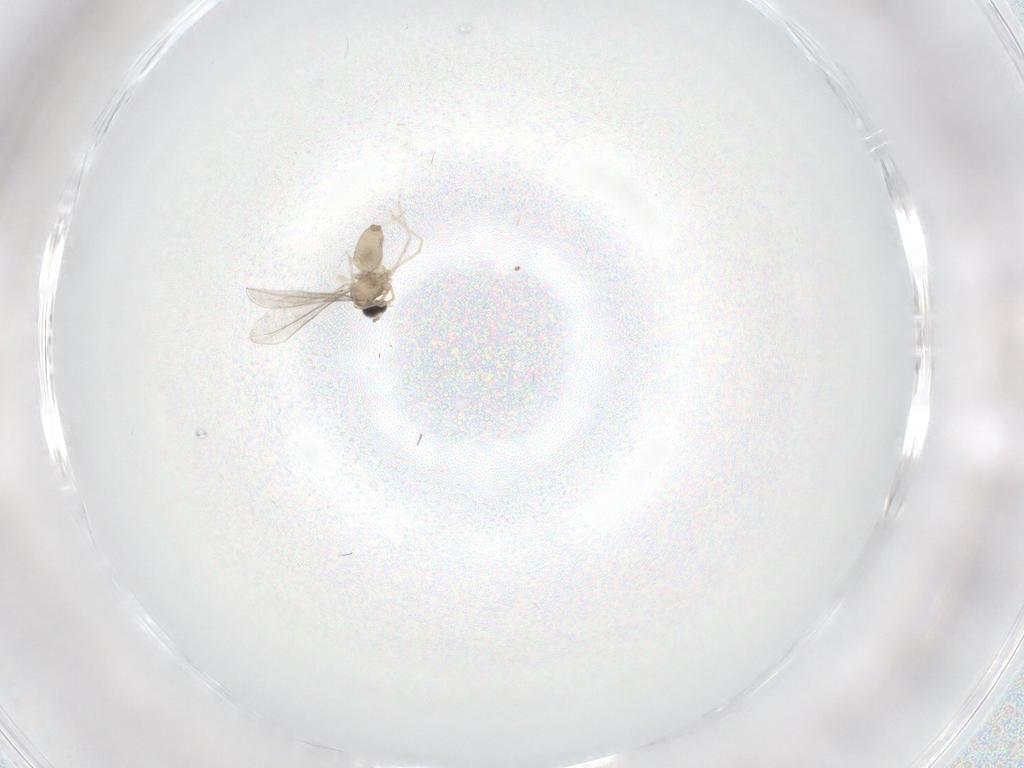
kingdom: Animalia
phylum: Arthropoda
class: Insecta
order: Diptera
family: Cecidomyiidae
